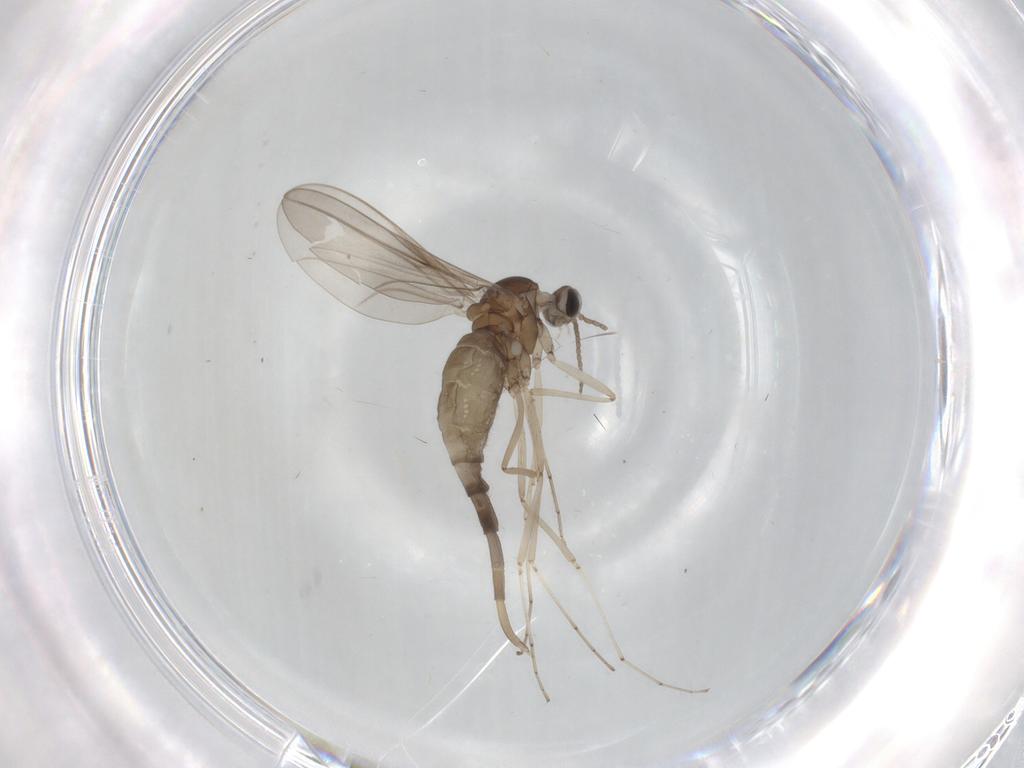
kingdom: Animalia
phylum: Arthropoda
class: Insecta
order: Diptera
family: Cecidomyiidae
